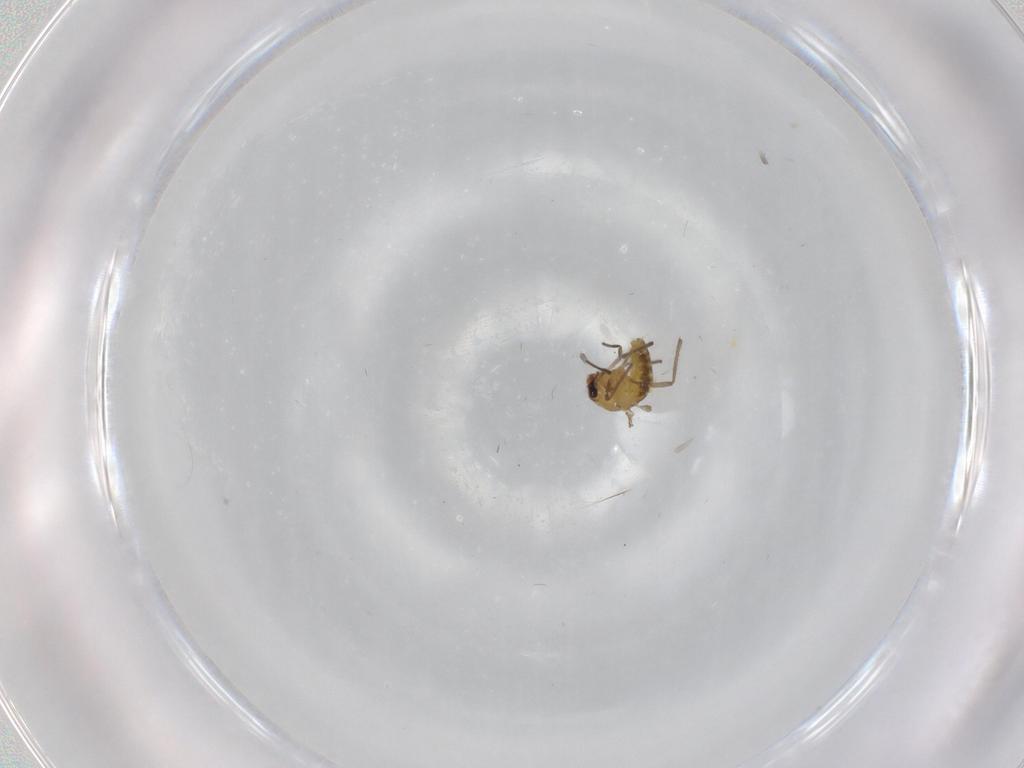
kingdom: Animalia
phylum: Arthropoda
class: Insecta
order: Diptera
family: Chironomidae
